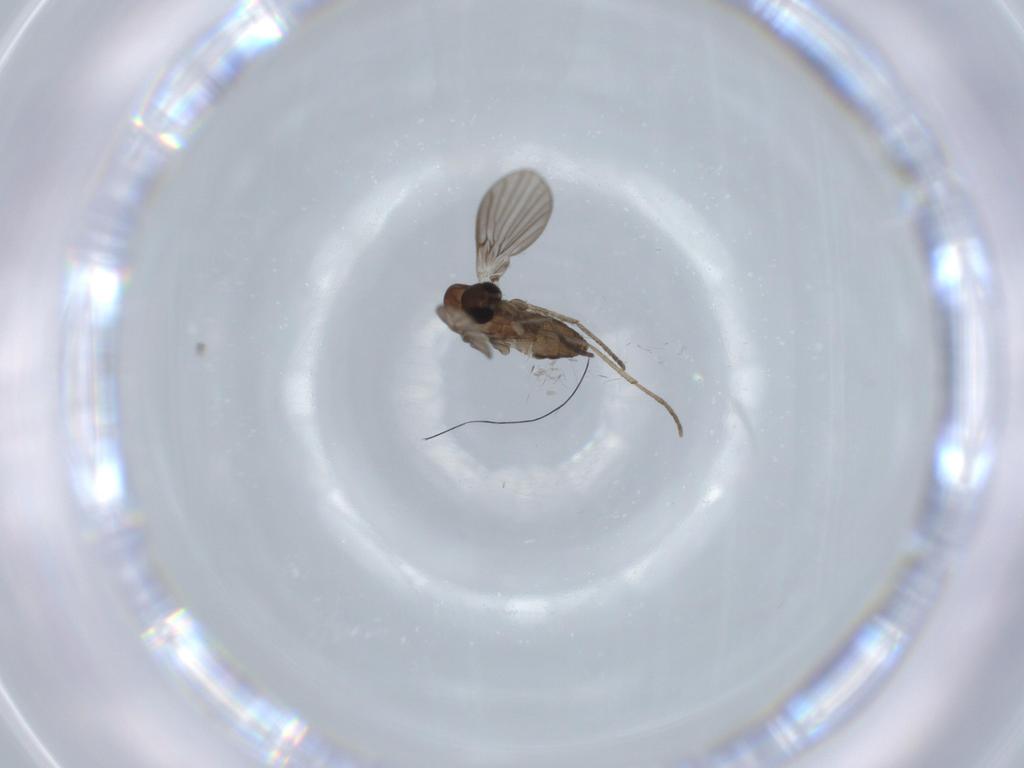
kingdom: Animalia
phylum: Arthropoda
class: Insecta
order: Diptera
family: Psychodidae
